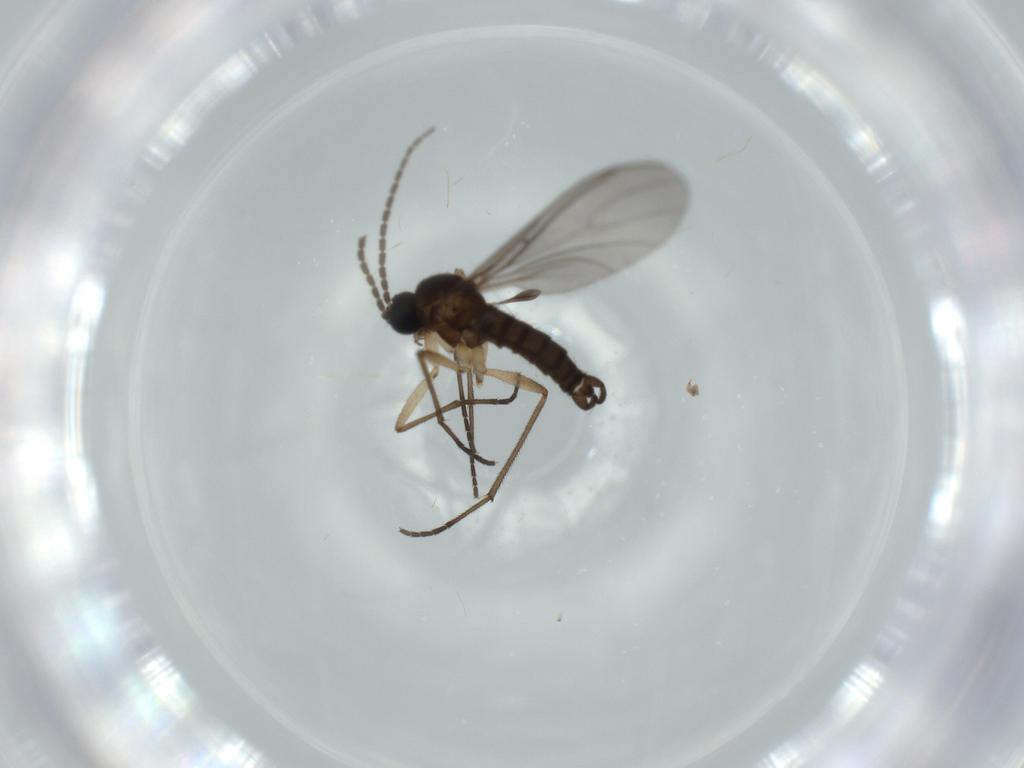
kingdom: Animalia
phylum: Arthropoda
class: Insecta
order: Diptera
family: Sciaridae
